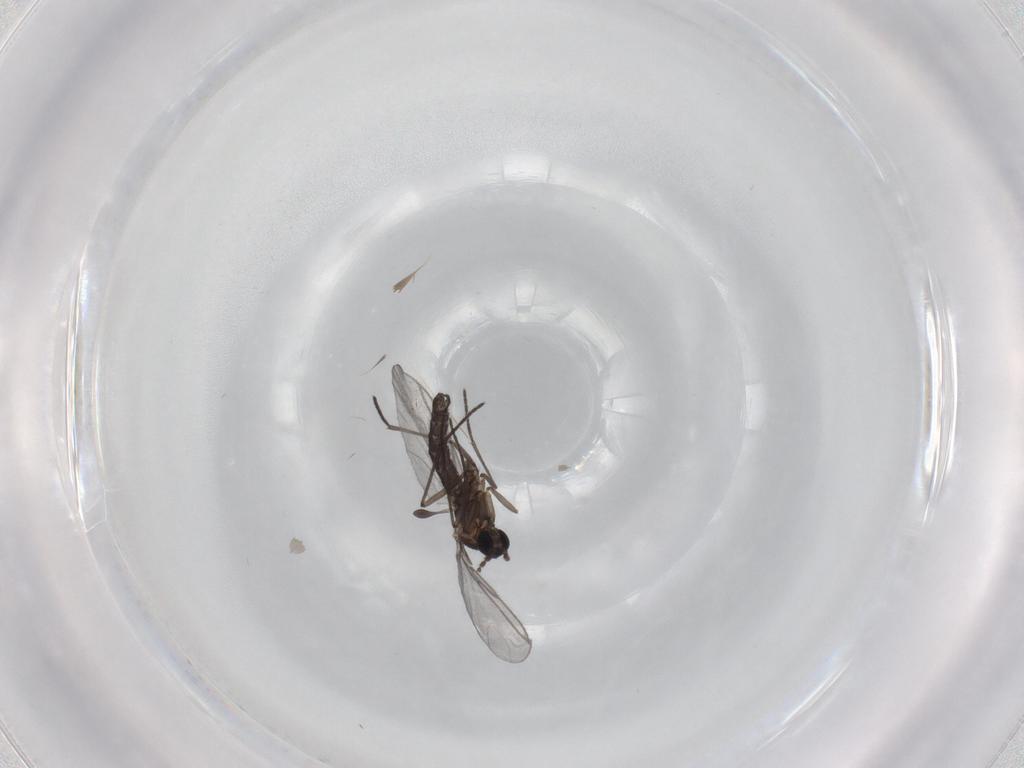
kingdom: Animalia
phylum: Arthropoda
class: Insecta
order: Diptera
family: Sciaridae
